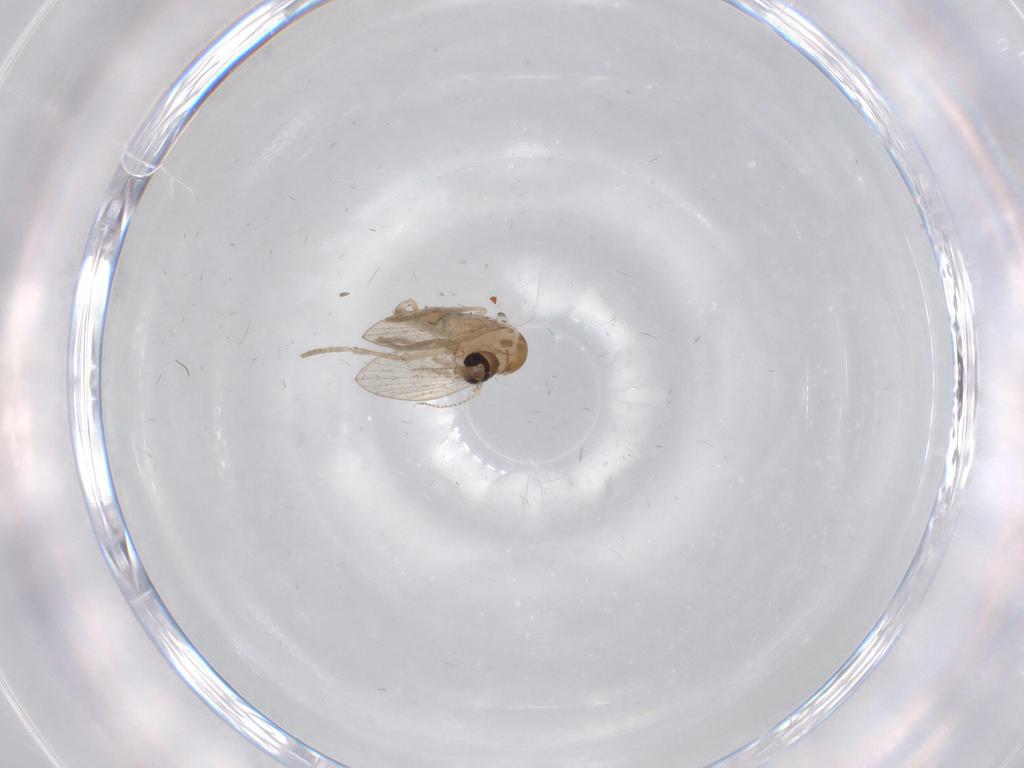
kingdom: Animalia
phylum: Arthropoda
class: Insecta
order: Diptera
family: Psychodidae
